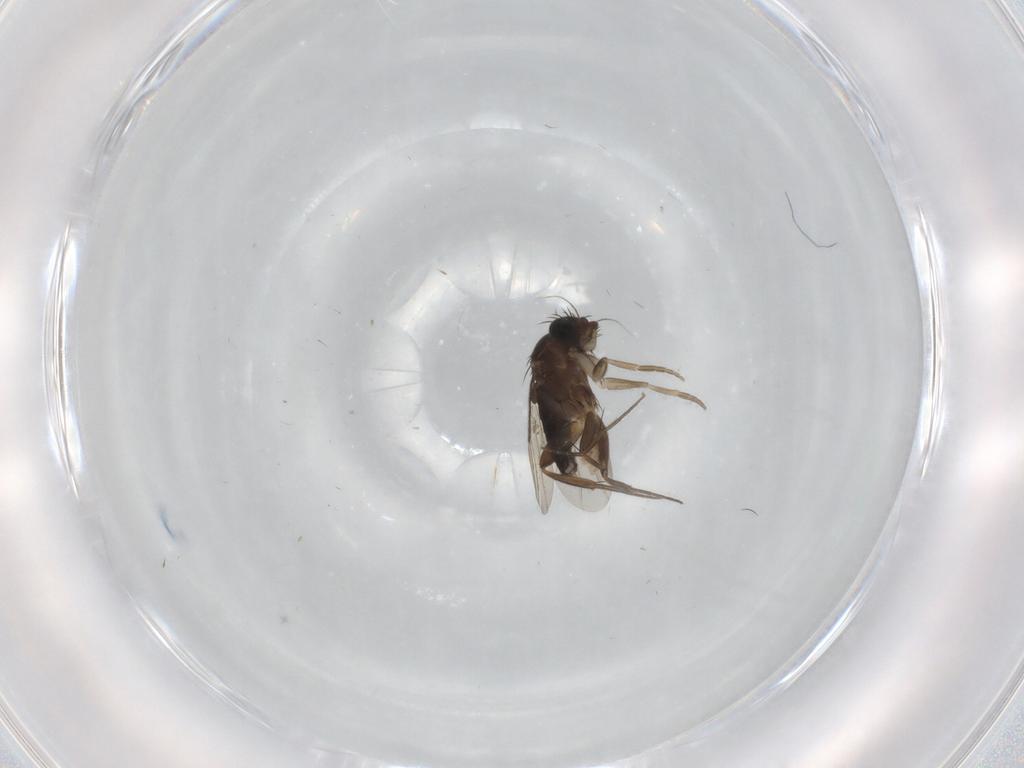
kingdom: Animalia
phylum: Arthropoda
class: Insecta
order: Diptera
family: Phoridae
